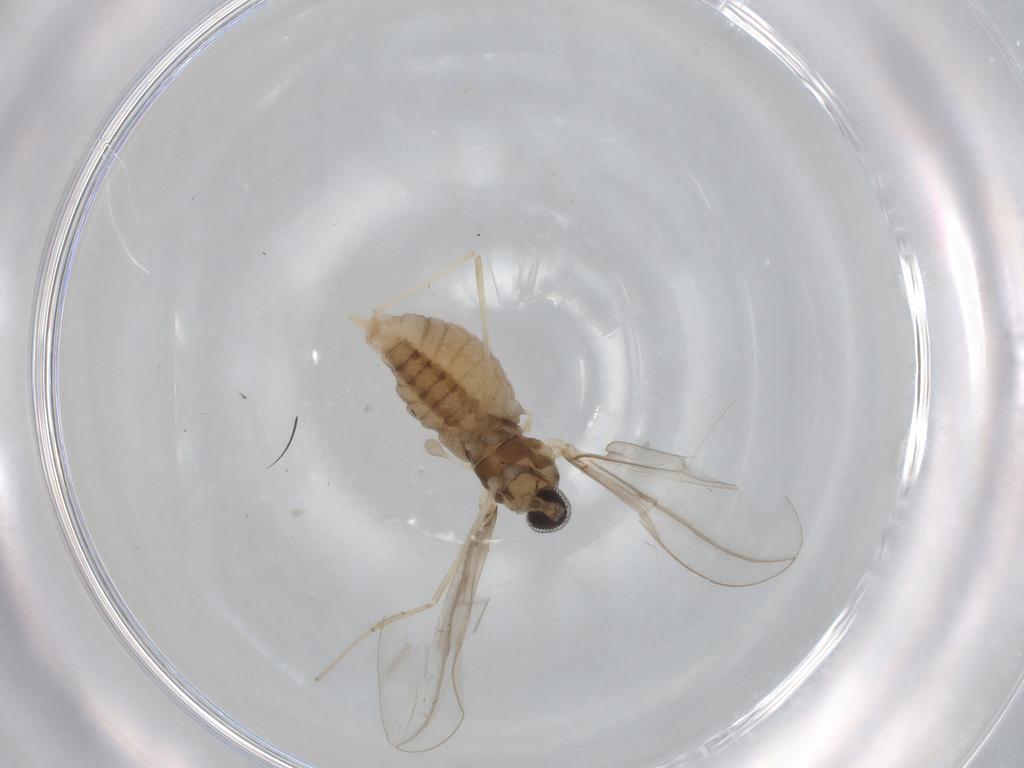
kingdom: Animalia
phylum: Arthropoda
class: Insecta
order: Diptera
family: Cecidomyiidae
